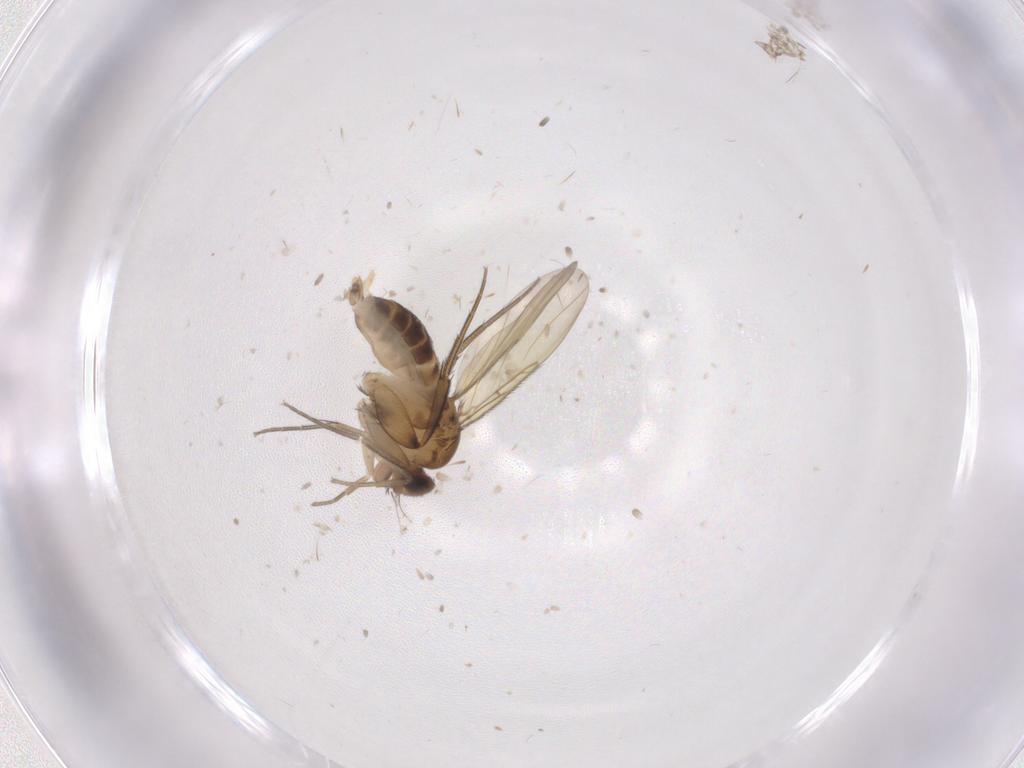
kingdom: Animalia
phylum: Arthropoda
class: Insecta
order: Diptera
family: Phoridae
